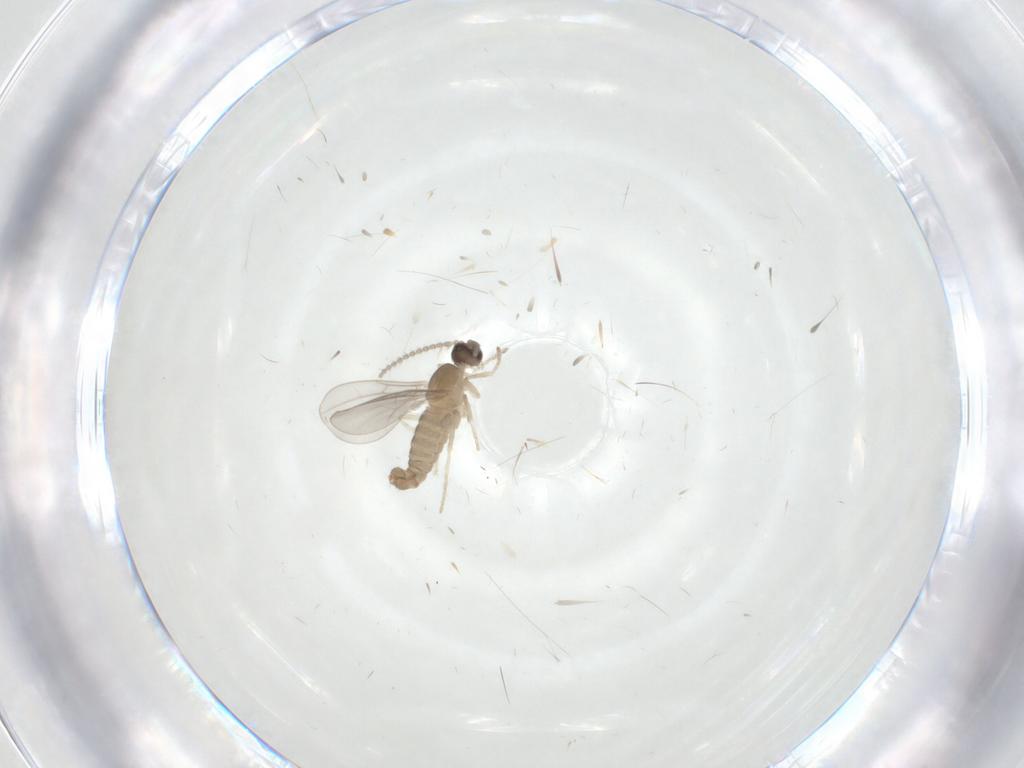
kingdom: Animalia
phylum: Arthropoda
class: Insecta
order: Diptera
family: Cecidomyiidae
